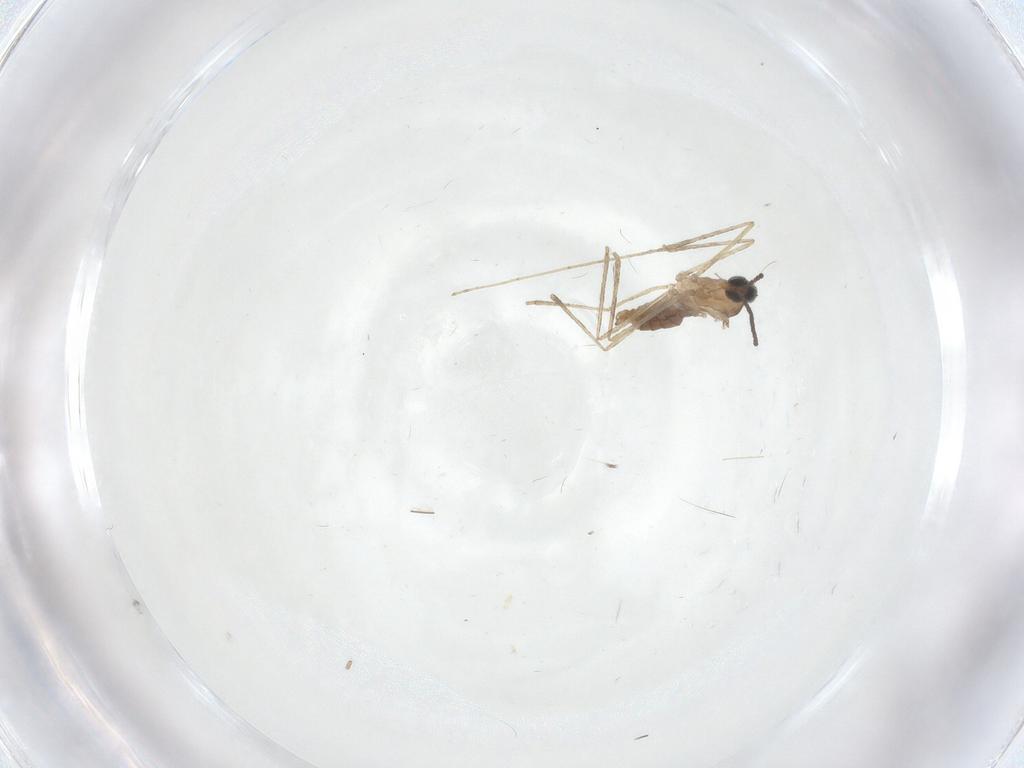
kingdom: Animalia
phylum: Arthropoda
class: Insecta
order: Diptera
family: Cecidomyiidae
